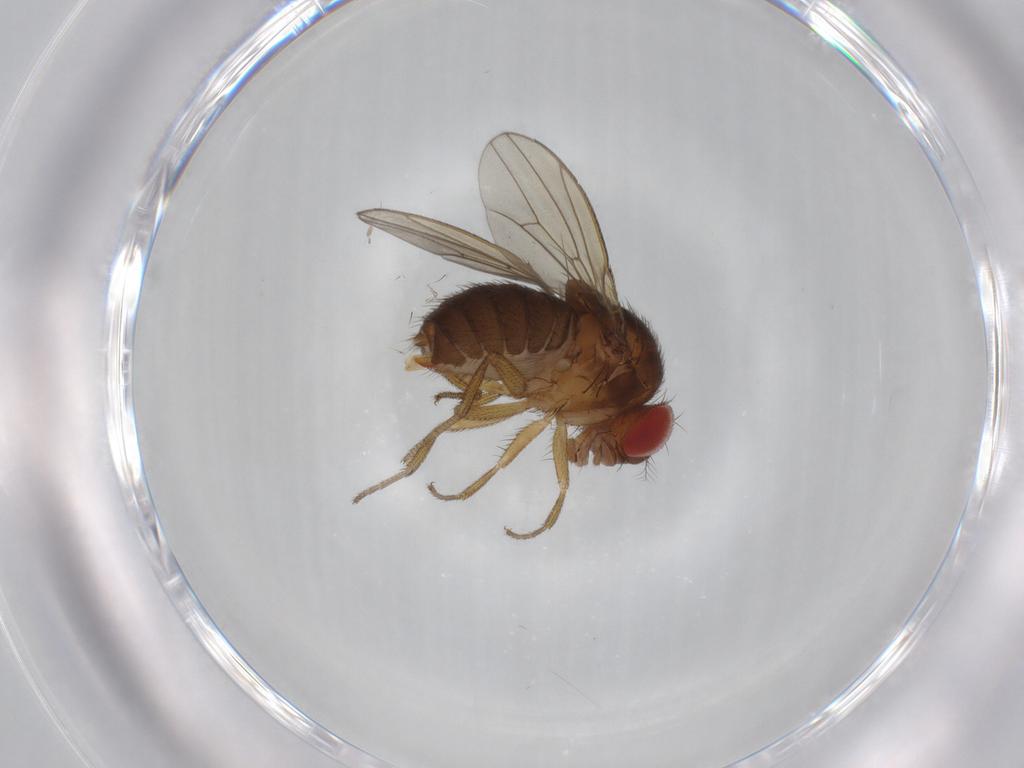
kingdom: Animalia
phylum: Arthropoda
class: Insecta
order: Diptera
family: Drosophilidae
